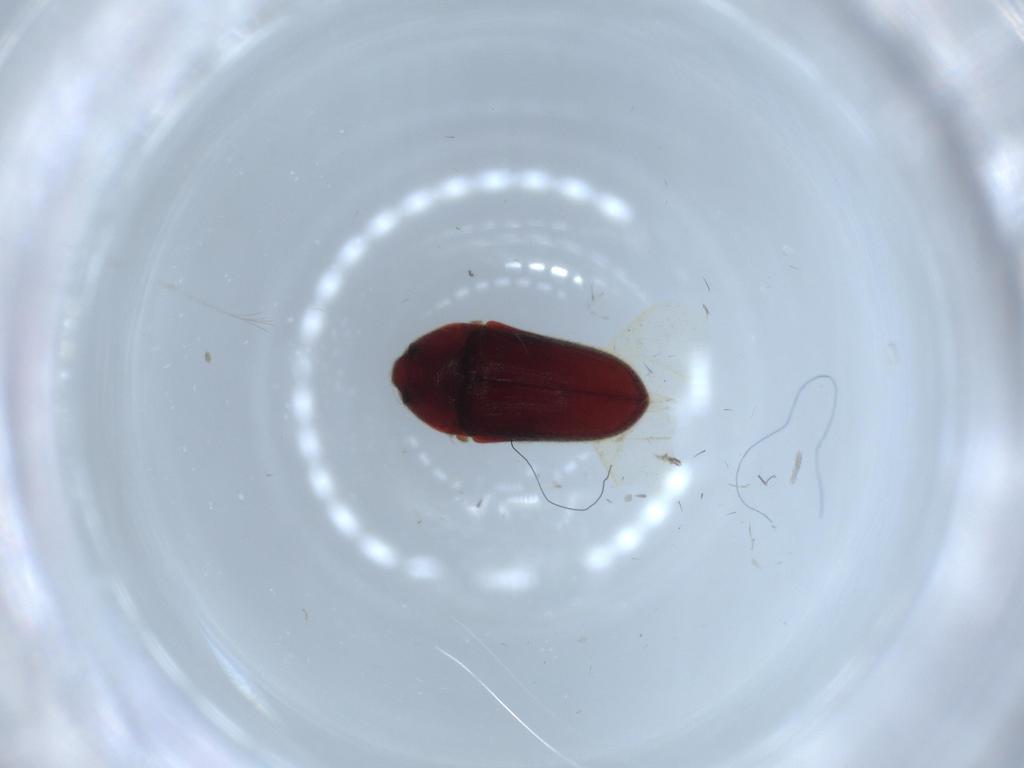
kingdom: Animalia
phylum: Arthropoda
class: Insecta
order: Coleoptera
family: Throscidae
